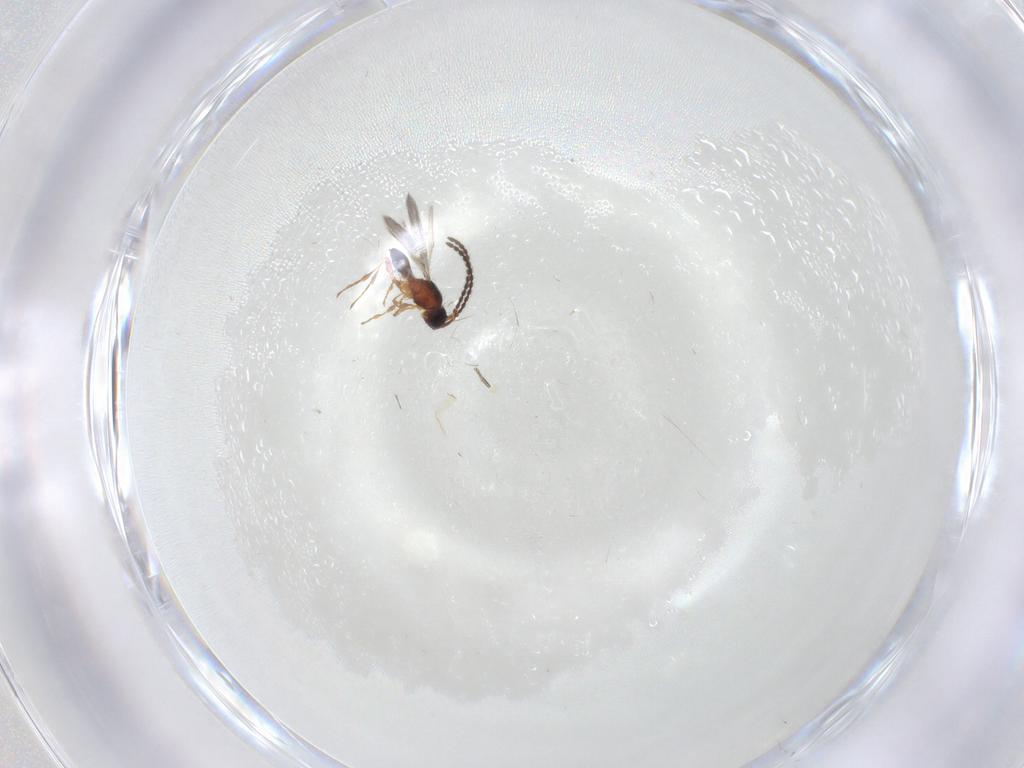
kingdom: Animalia
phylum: Arthropoda
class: Insecta
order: Hymenoptera
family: Diapriidae
